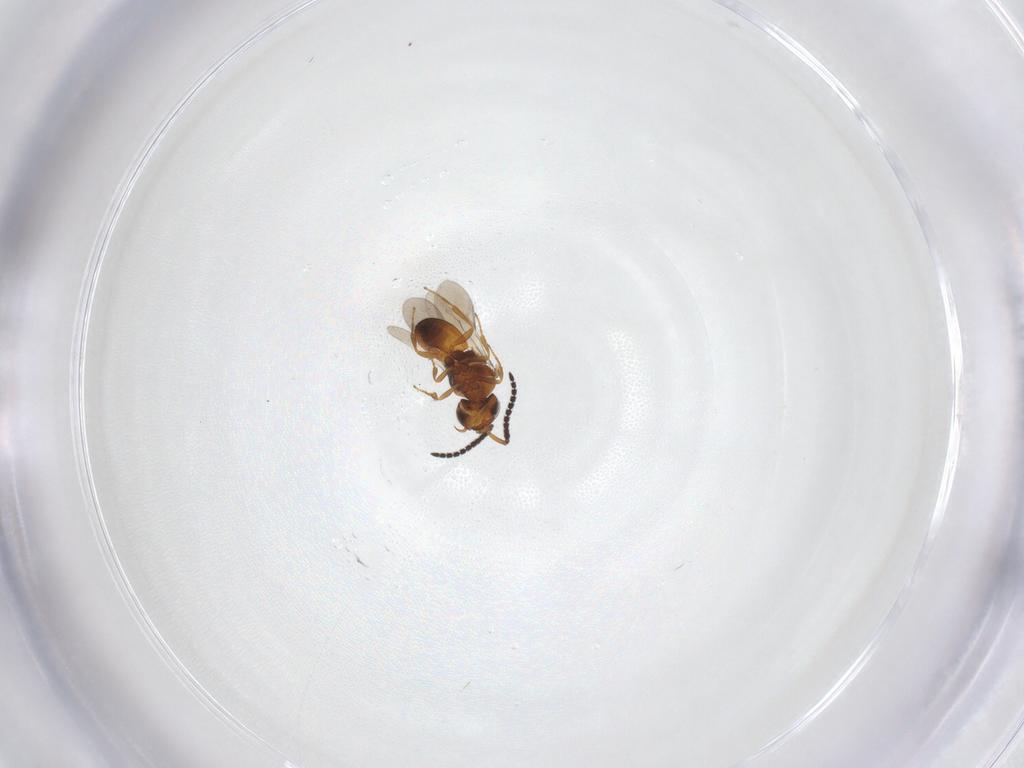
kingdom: Animalia
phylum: Arthropoda
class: Insecta
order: Hymenoptera
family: Scelionidae
